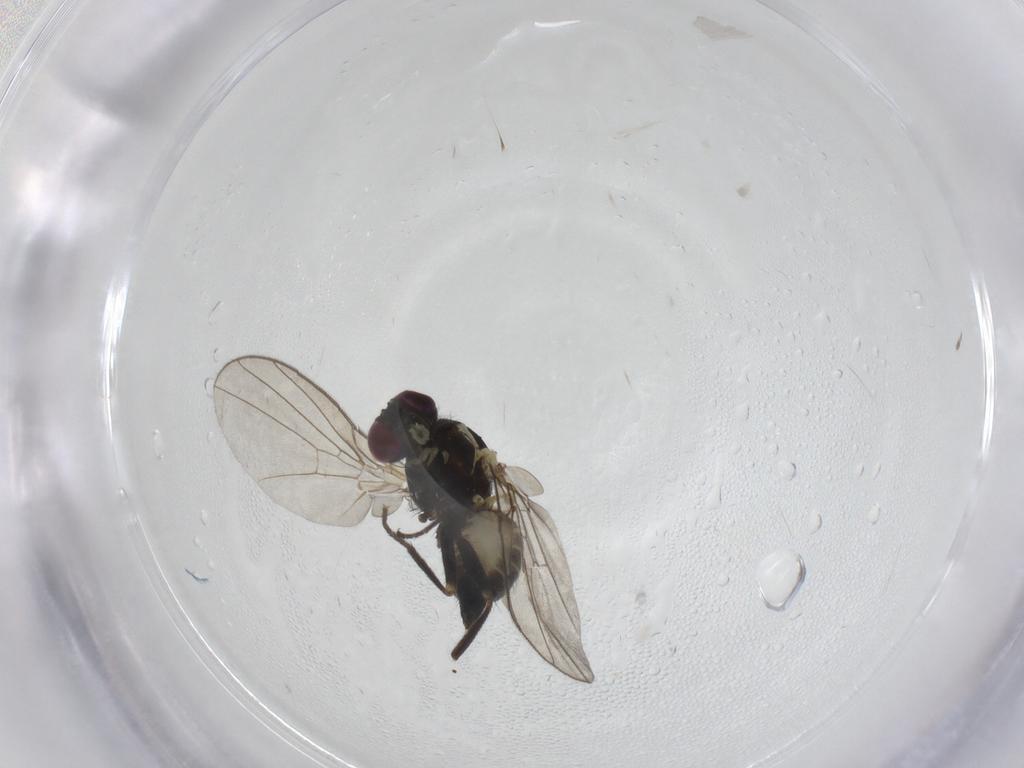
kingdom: Animalia
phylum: Arthropoda
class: Insecta
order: Diptera
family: Agromyzidae
